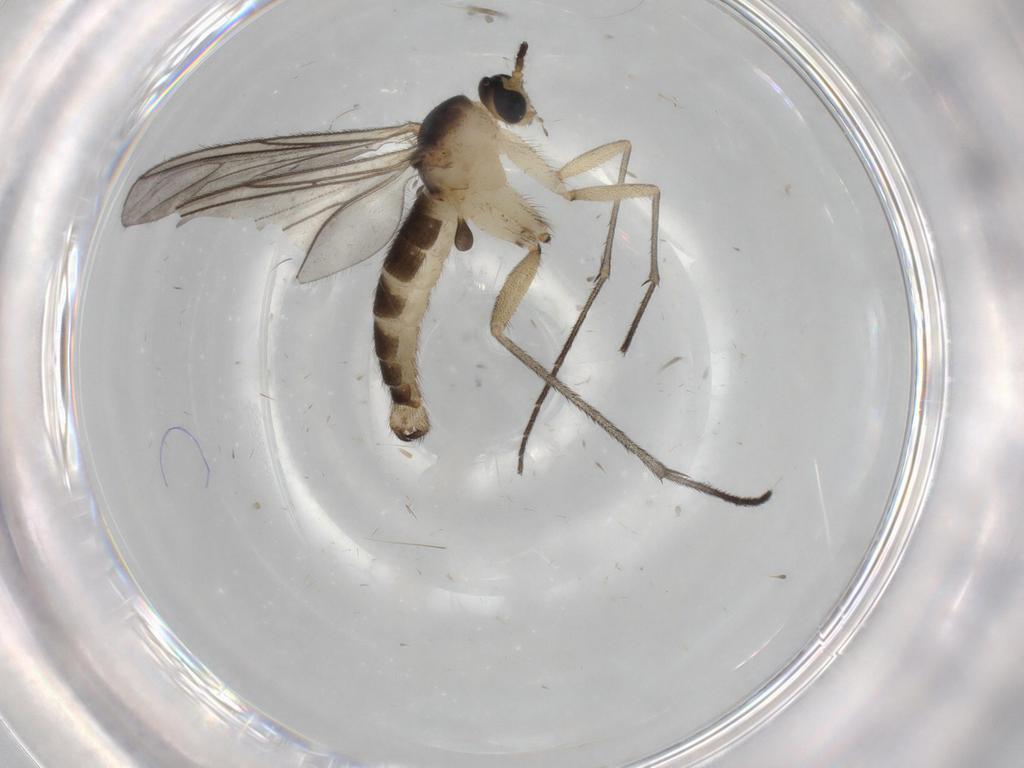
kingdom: Animalia
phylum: Arthropoda
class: Insecta
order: Diptera
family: Sciaridae
